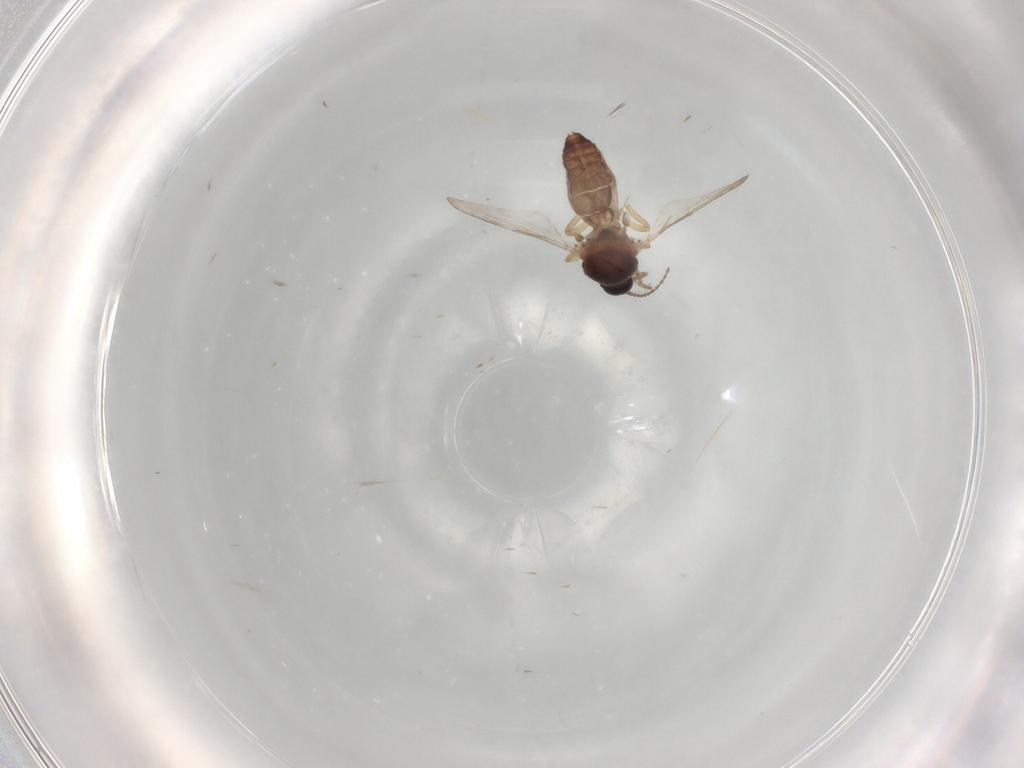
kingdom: Animalia
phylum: Arthropoda
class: Insecta
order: Diptera
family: Ceratopogonidae
